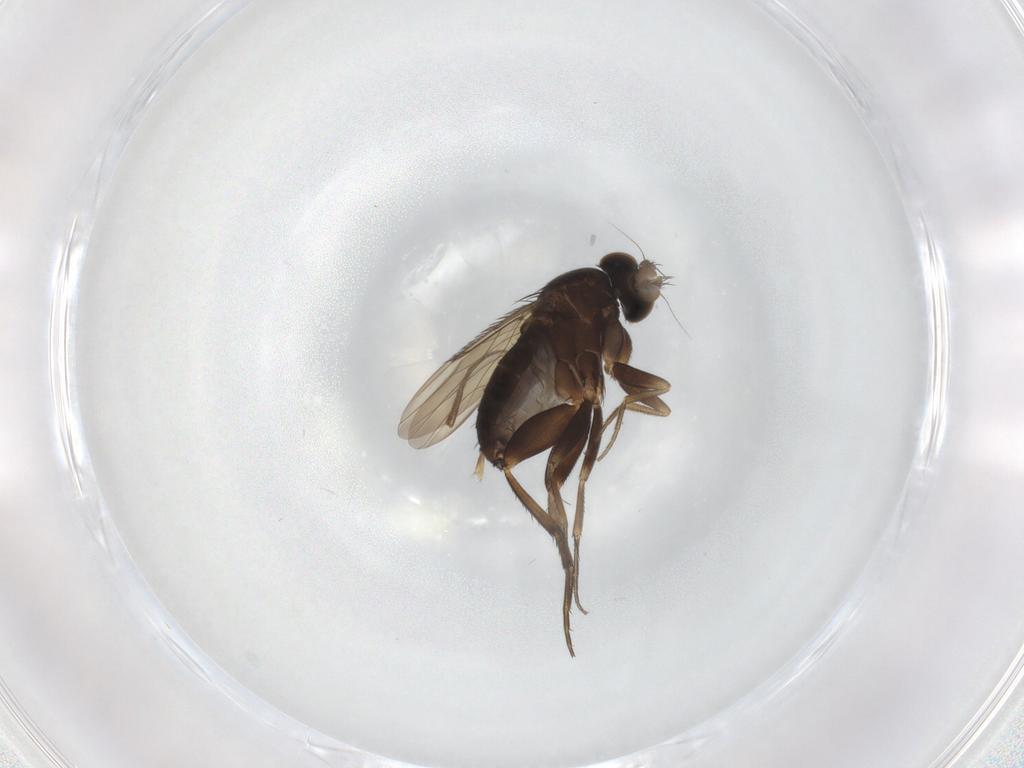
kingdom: Animalia
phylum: Arthropoda
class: Insecta
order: Diptera
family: Phoridae
